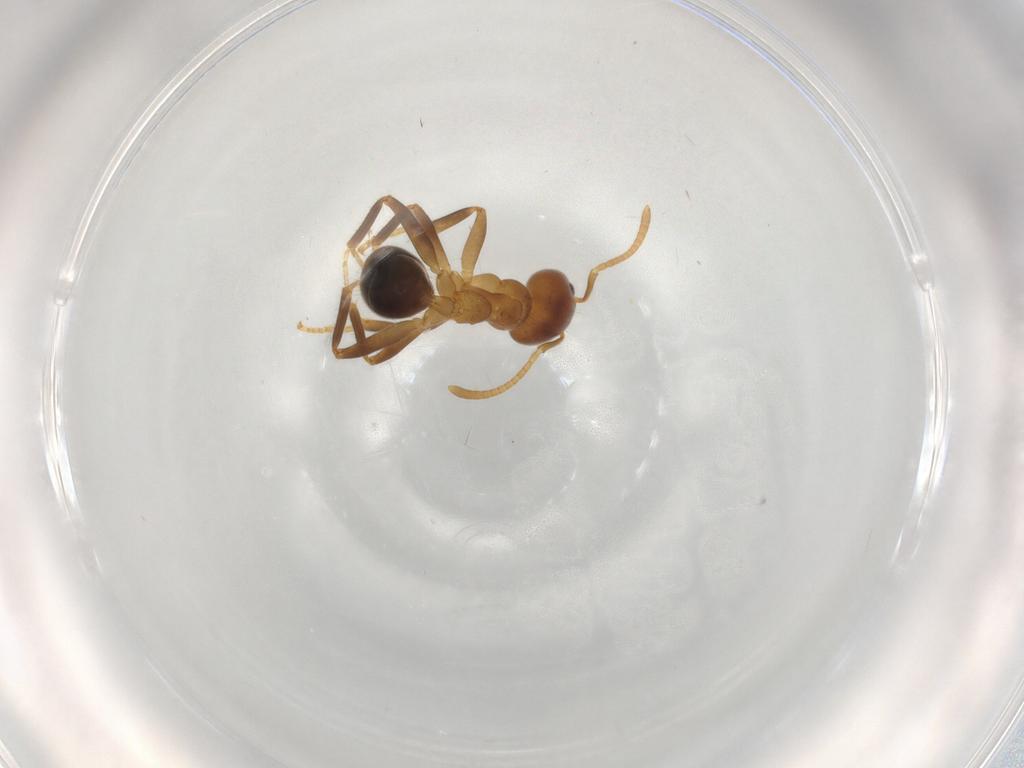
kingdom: Animalia
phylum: Arthropoda
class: Insecta
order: Hymenoptera
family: Formicidae
